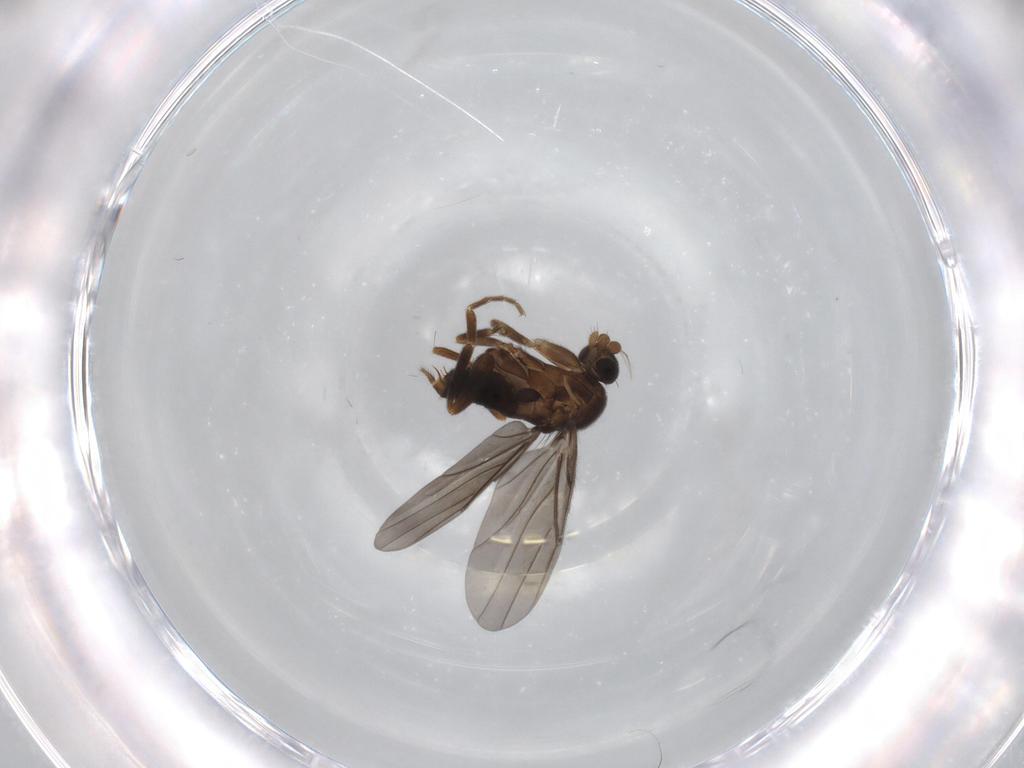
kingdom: Animalia
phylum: Arthropoda
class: Insecta
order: Diptera
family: Phoridae
